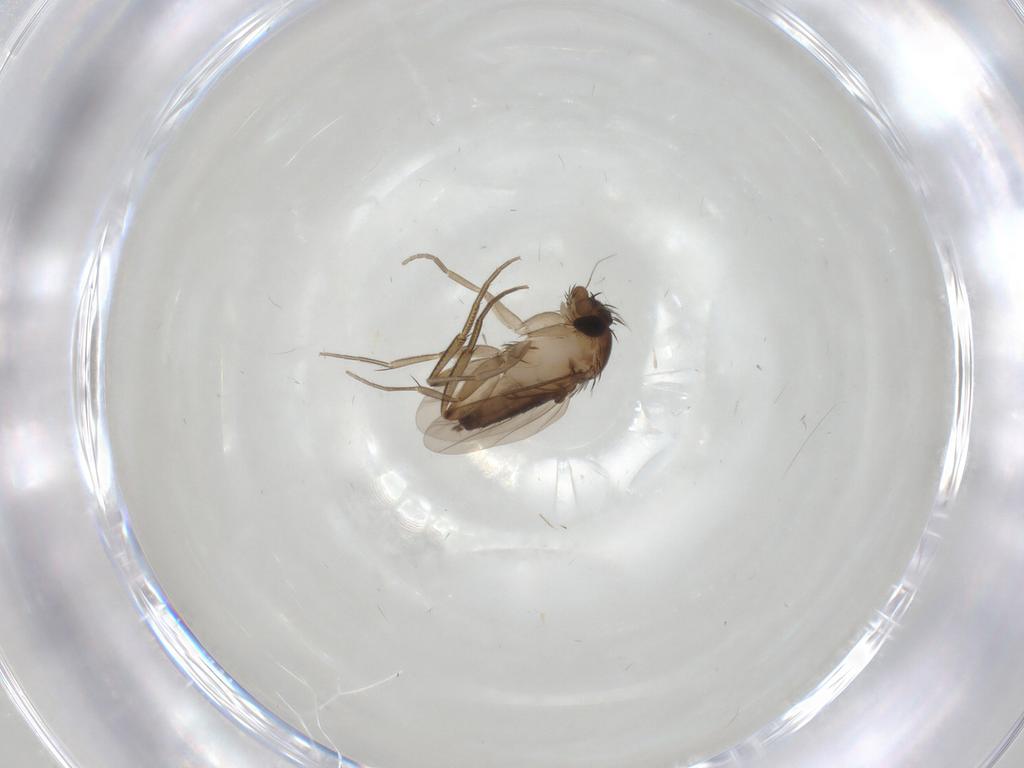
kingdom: Animalia
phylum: Arthropoda
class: Insecta
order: Diptera
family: Phoridae
